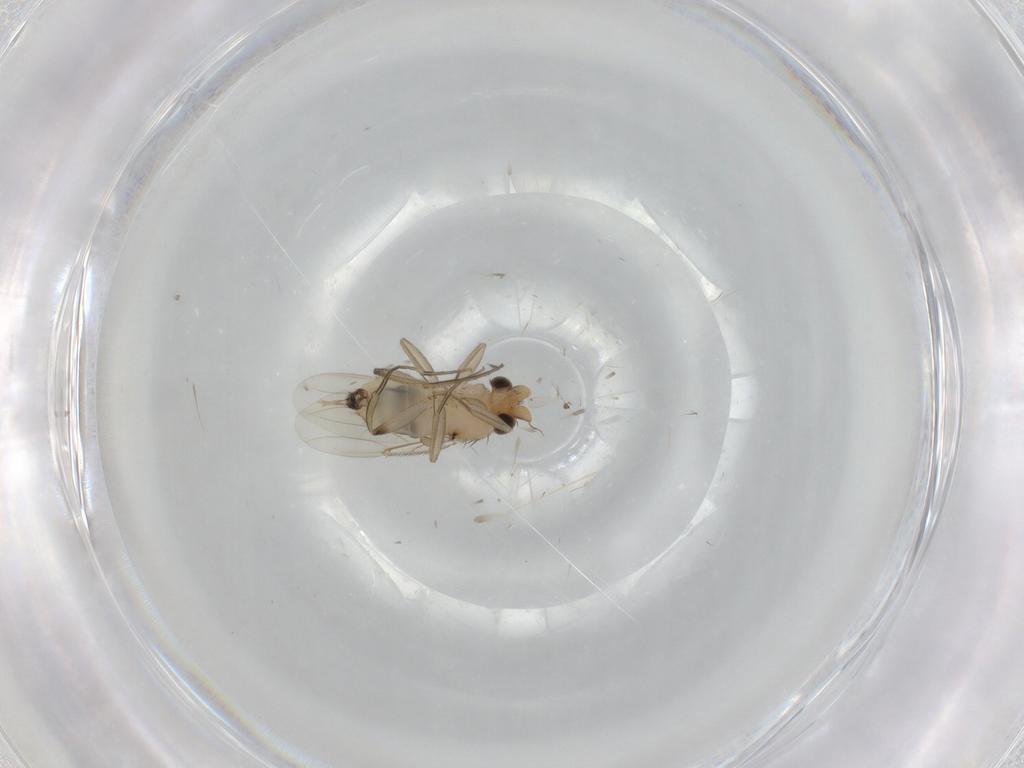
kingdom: Animalia
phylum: Arthropoda
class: Insecta
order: Diptera
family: Phoridae
